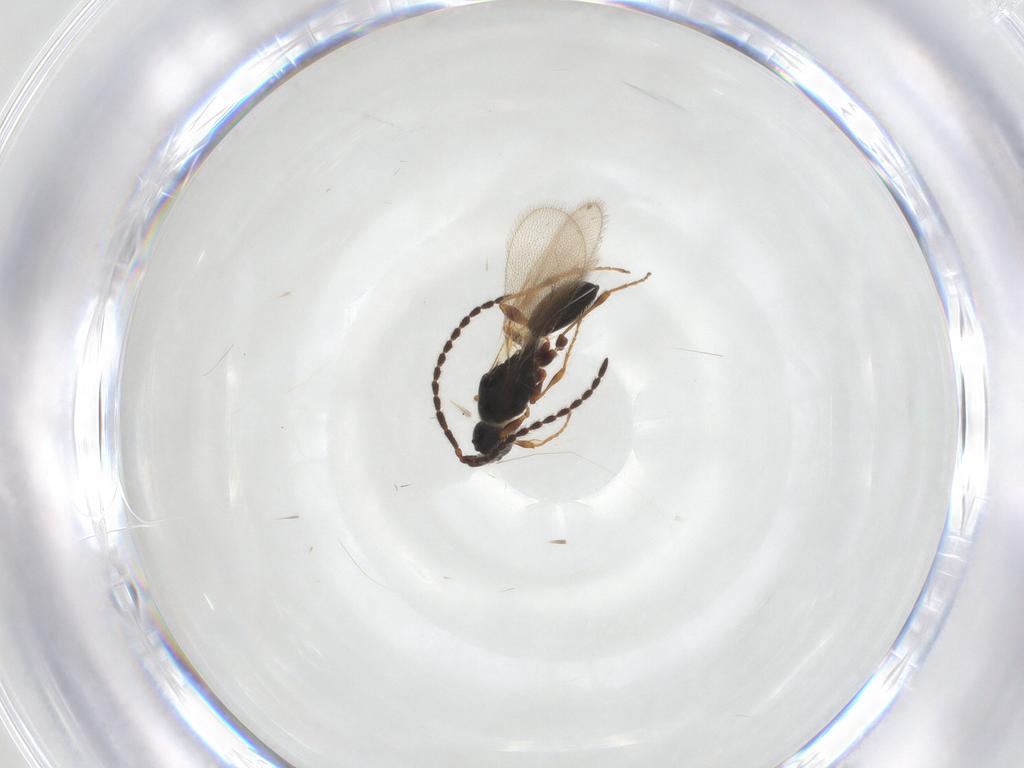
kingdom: Animalia
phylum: Arthropoda
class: Insecta
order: Hymenoptera
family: Diapriidae
